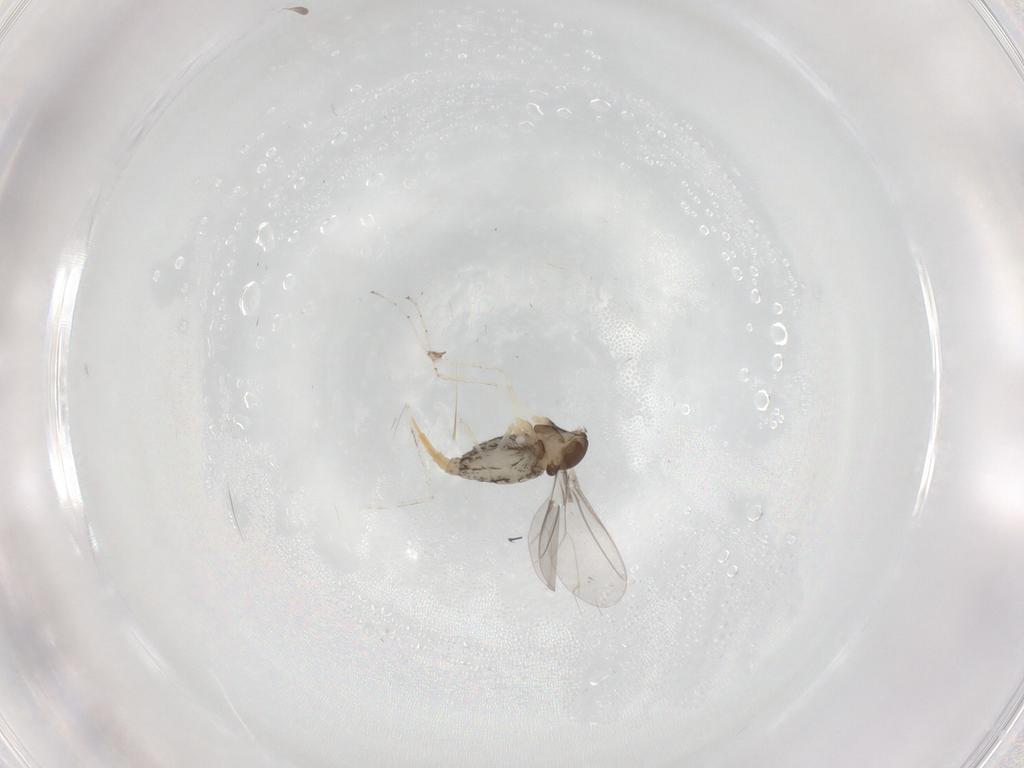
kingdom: Animalia
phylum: Arthropoda
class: Insecta
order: Diptera
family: Cecidomyiidae
